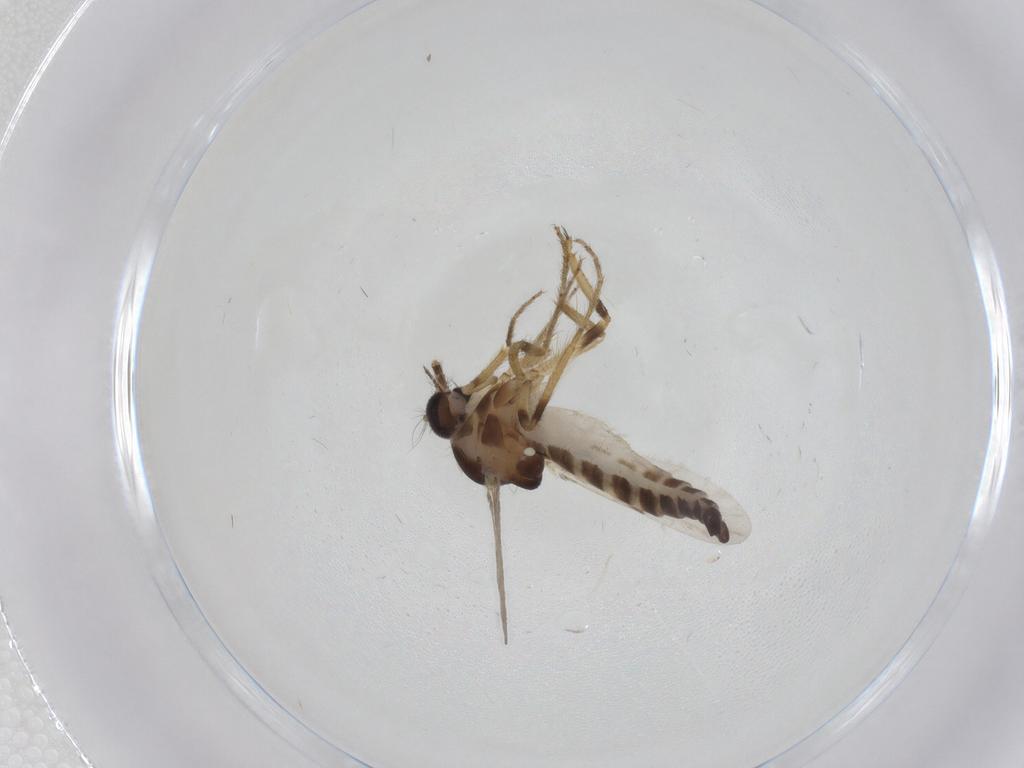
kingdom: Animalia
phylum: Arthropoda
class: Insecta
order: Diptera
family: Ceratopogonidae
